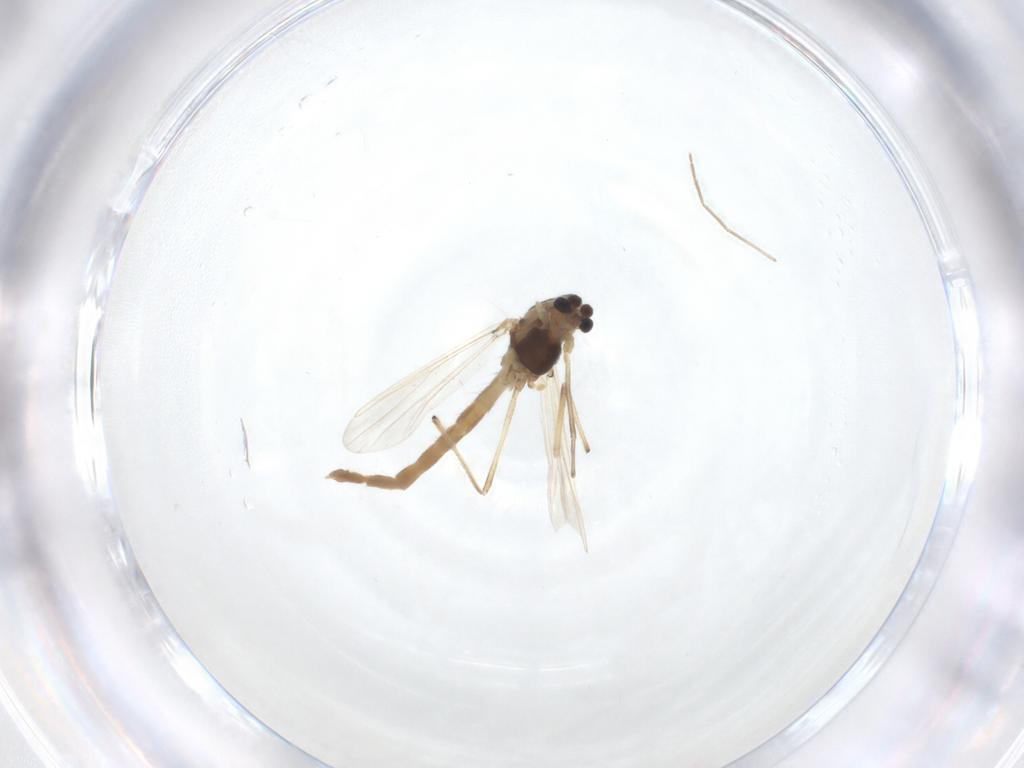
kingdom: Animalia
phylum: Arthropoda
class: Insecta
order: Diptera
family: Chironomidae
